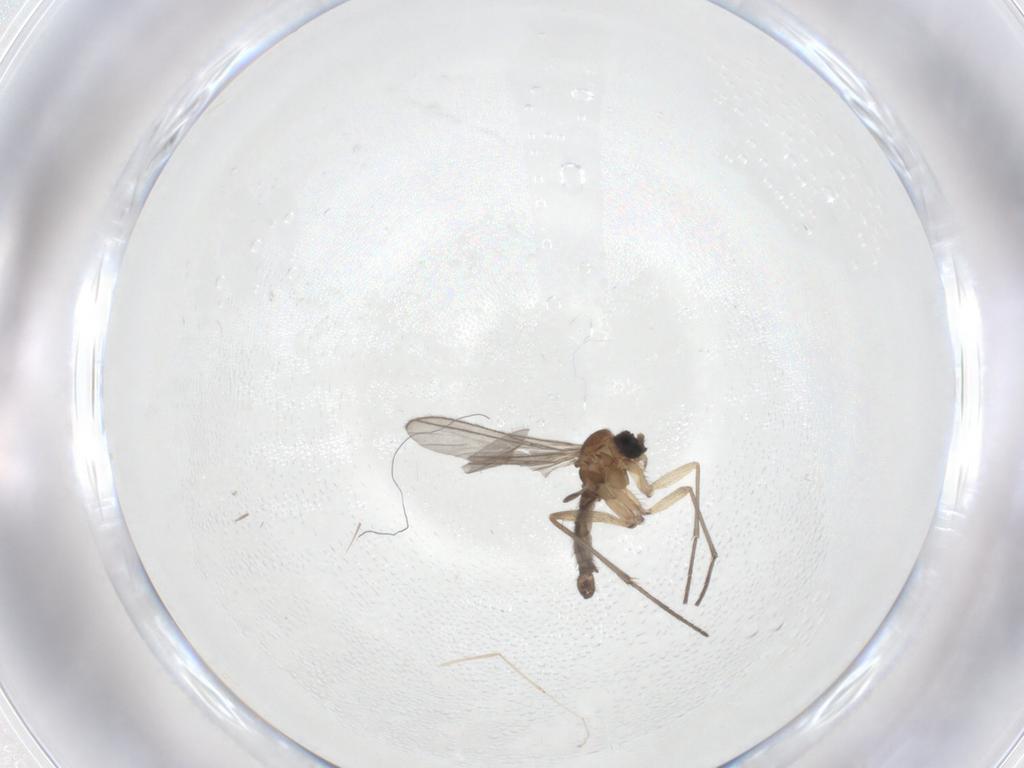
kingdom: Animalia
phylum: Arthropoda
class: Insecta
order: Diptera
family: Sciaridae
